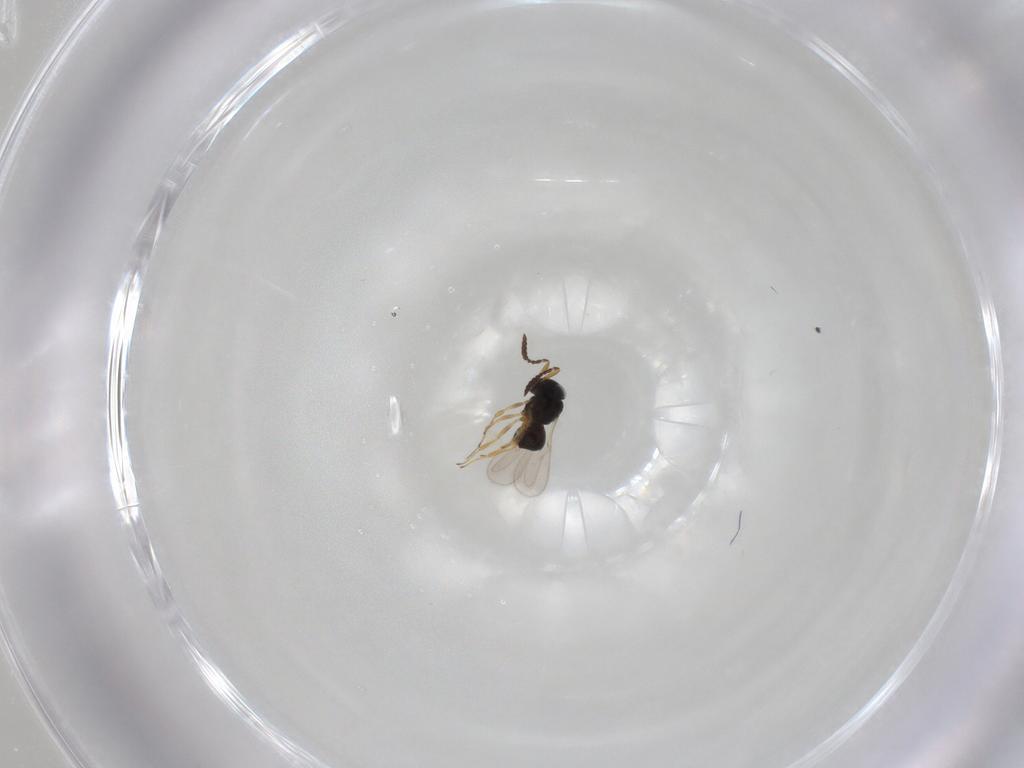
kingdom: Animalia
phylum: Arthropoda
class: Insecta
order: Hymenoptera
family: Scelionidae
